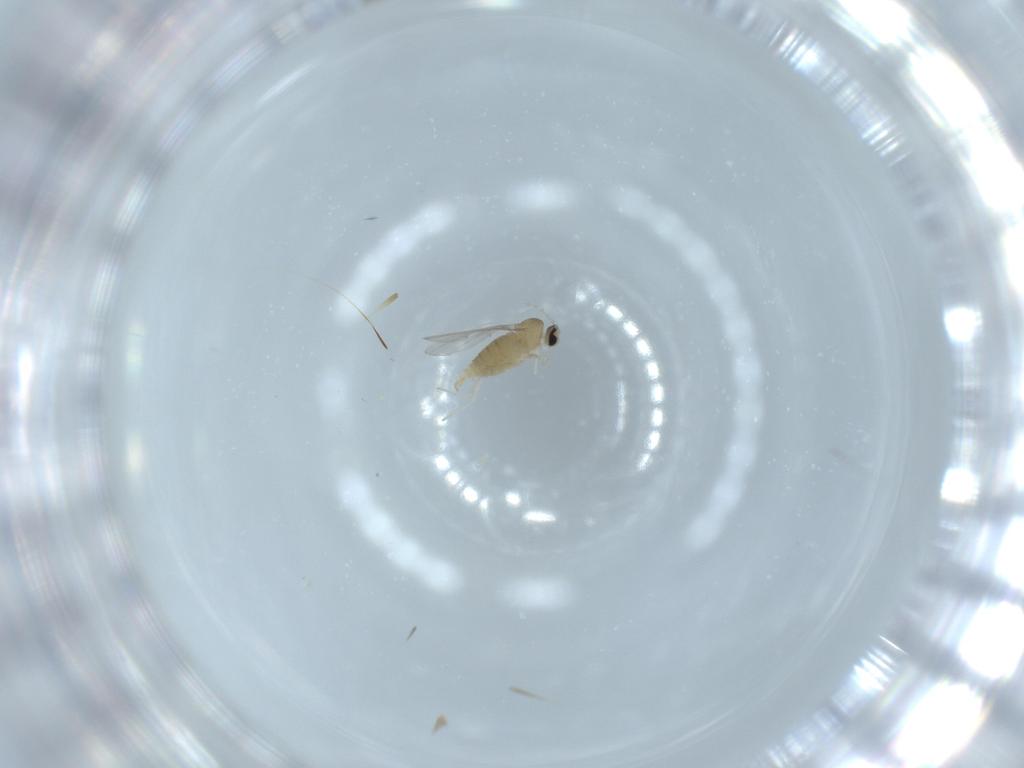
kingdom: Animalia
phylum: Arthropoda
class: Insecta
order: Diptera
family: Cecidomyiidae
